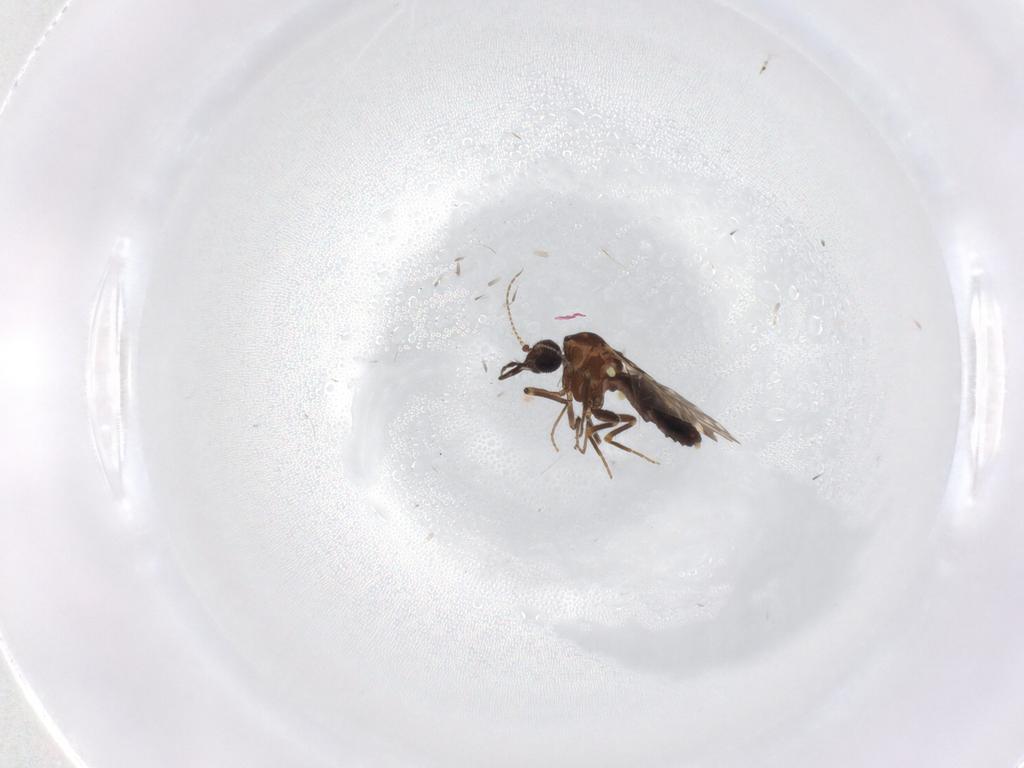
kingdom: Animalia
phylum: Arthropoda
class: Insecta
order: Diptera
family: Ceratopogonidae
